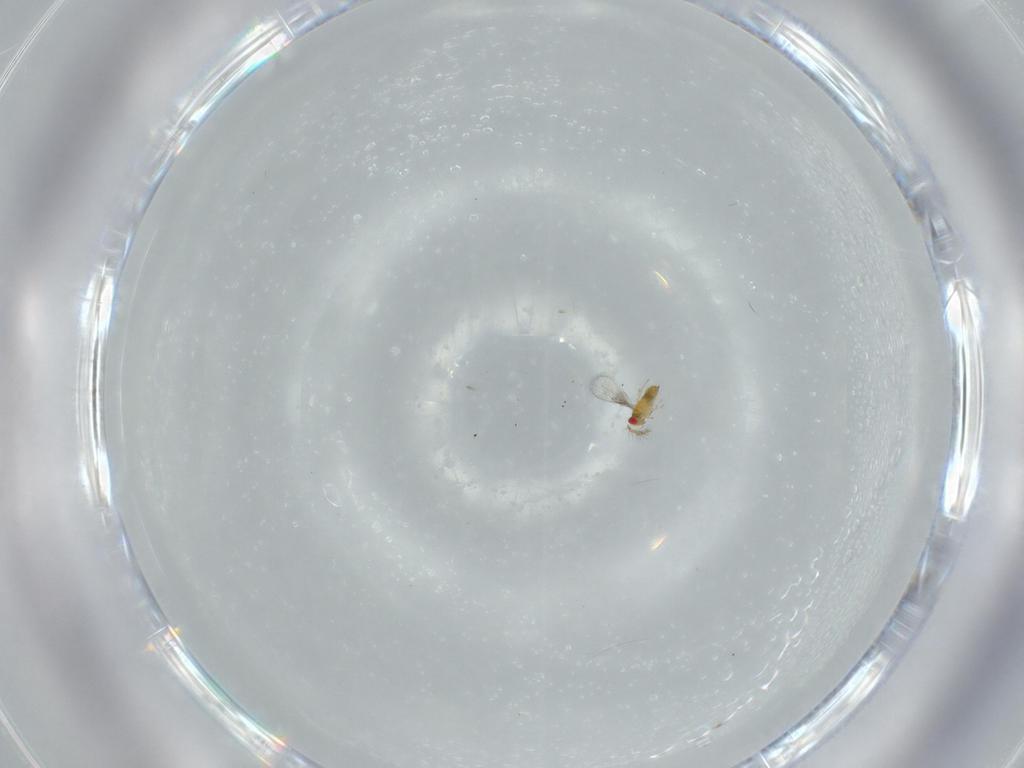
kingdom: Animalia
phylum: Arthropoda
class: Insecta
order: Hymenoptera
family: Trichogrammatidae
